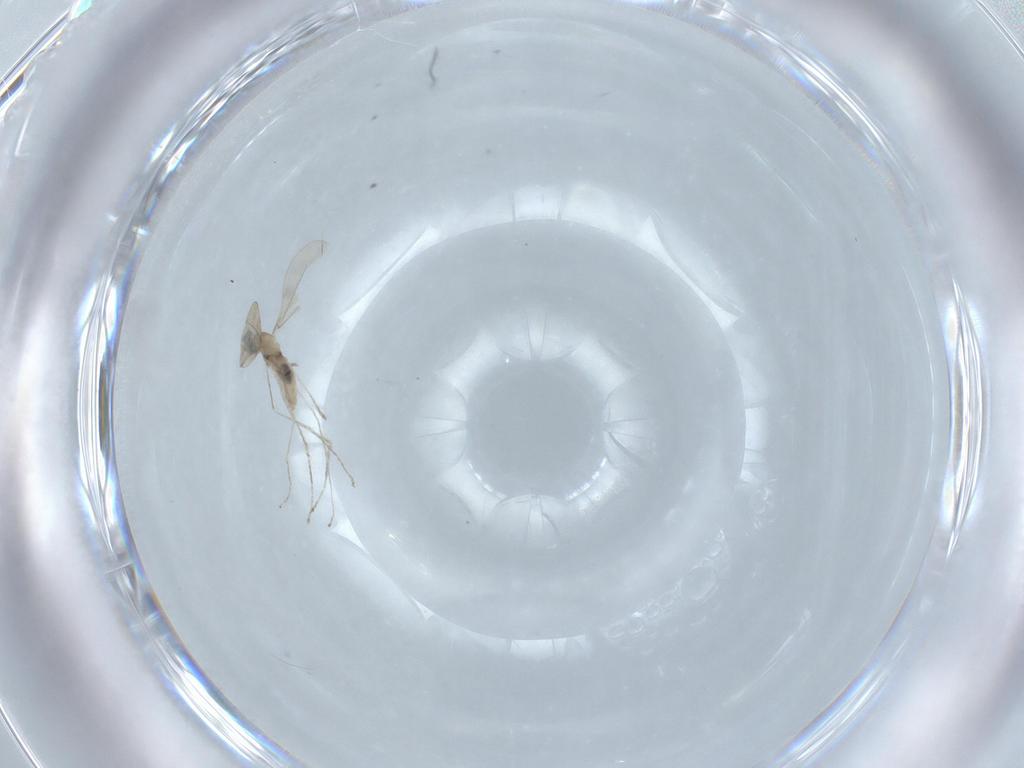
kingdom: Animalia
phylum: Arthropoda
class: Insecta
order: Diptera
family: Cecidomyiidae
